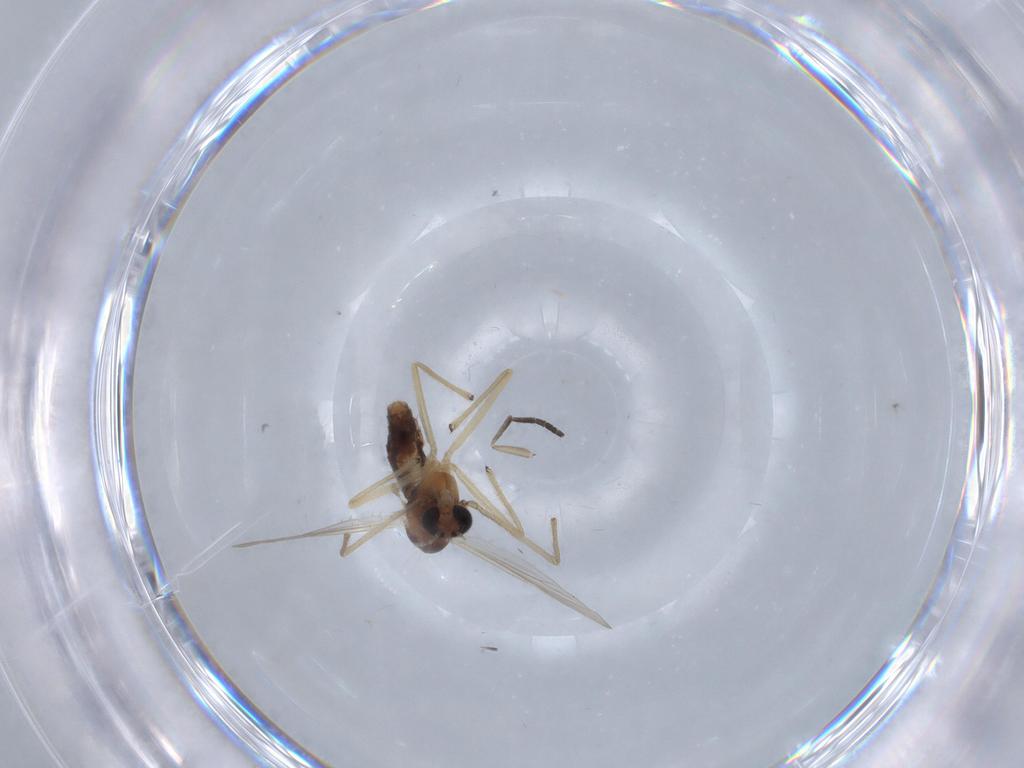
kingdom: Animalia
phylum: Arthropoda
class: Insecta
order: Diptera
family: Chironomidae
